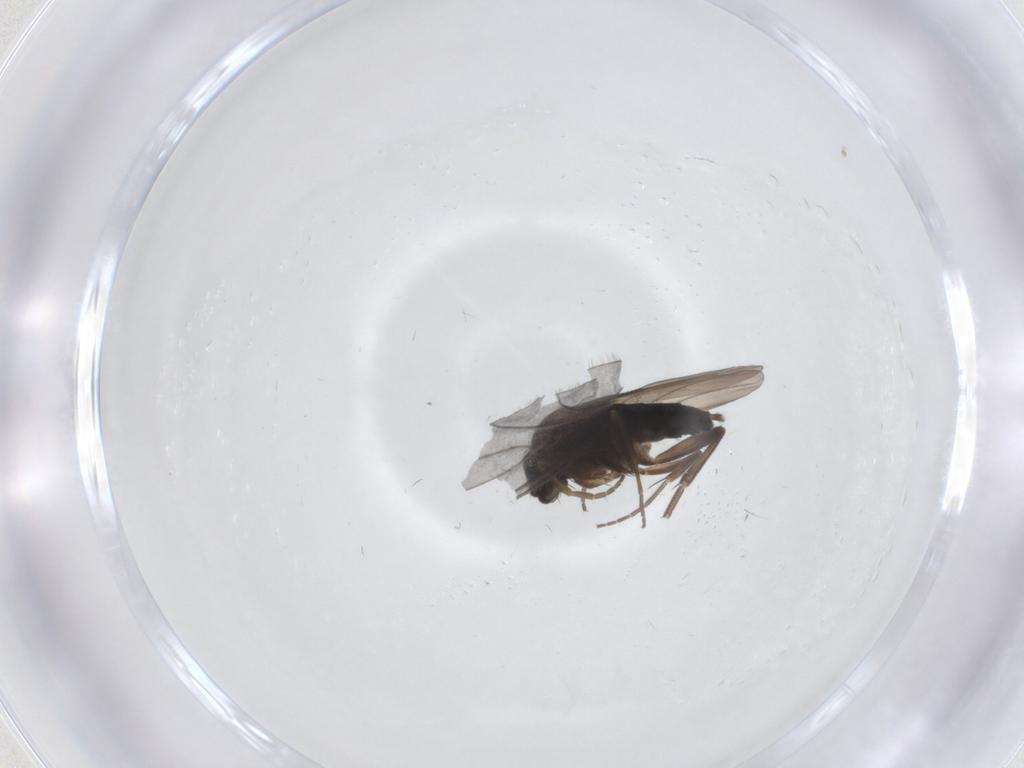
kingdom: Animalia
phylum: Arthropoda
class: Insecta
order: Diptera
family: Phoridae
